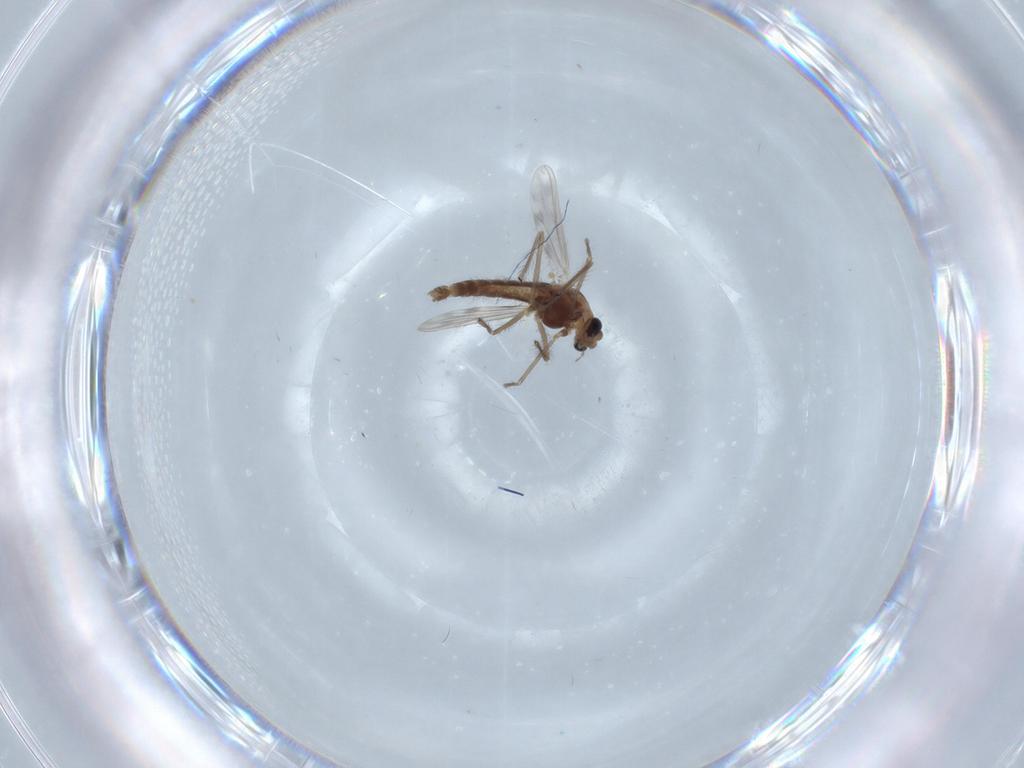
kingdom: Animalia
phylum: Arthropoda
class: Insecta
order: Diptera
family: Chironomidae
